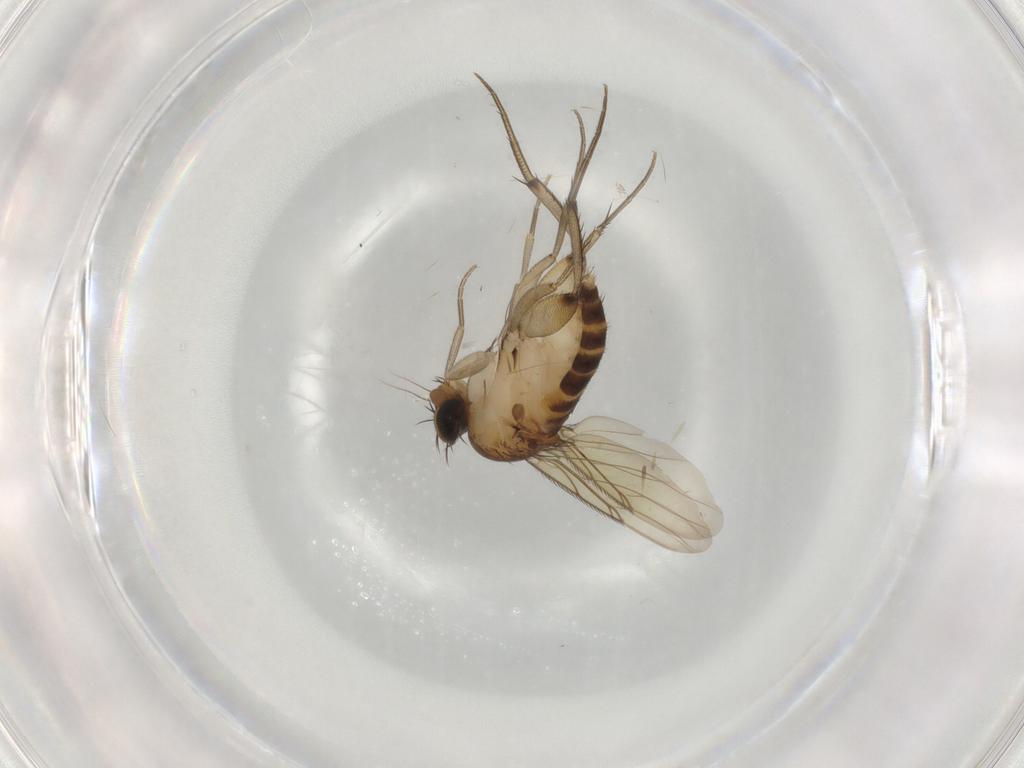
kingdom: Animalia
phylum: Arthropoda
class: Insecta
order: Diptera
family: Phoridae
